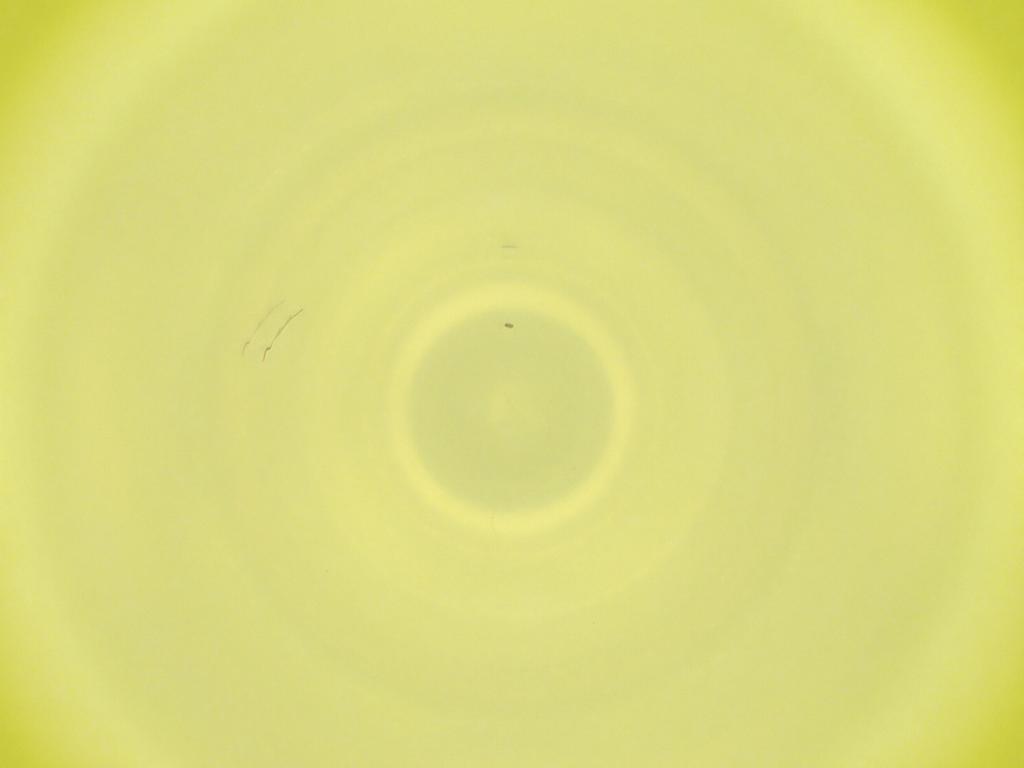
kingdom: Animalia
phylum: Arthropoda
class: Insecta
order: Diptera
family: Cecidomyiidae
